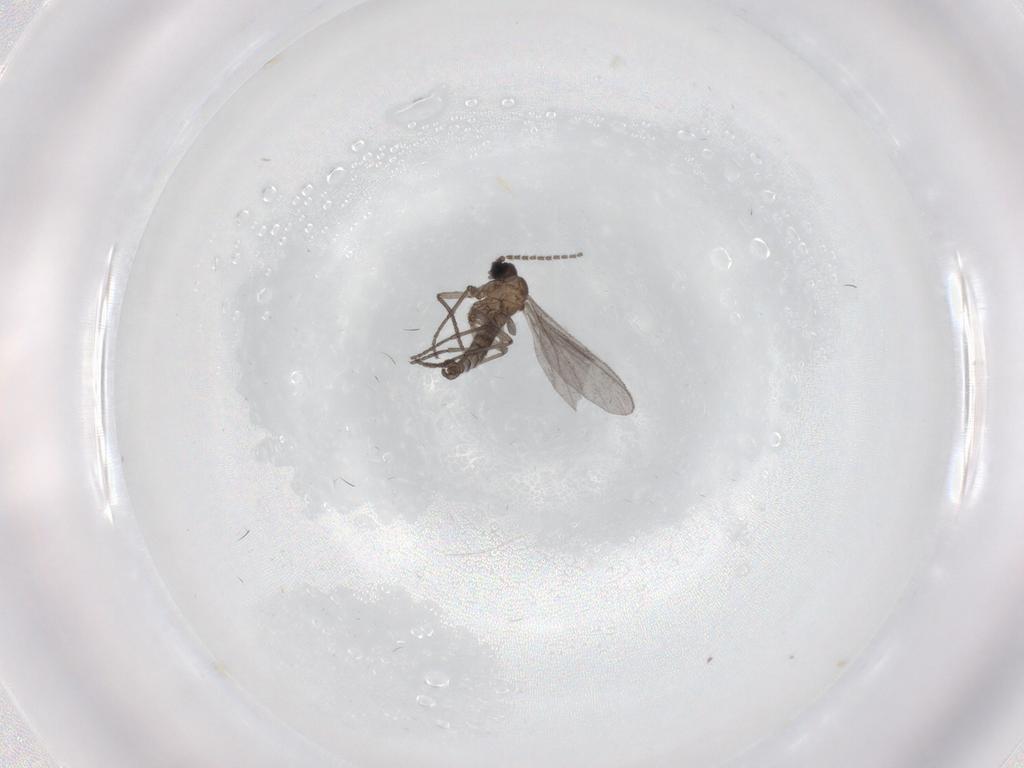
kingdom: Animalia
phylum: Arthropoda
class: Insecta
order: Diptera
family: Sciaridae
